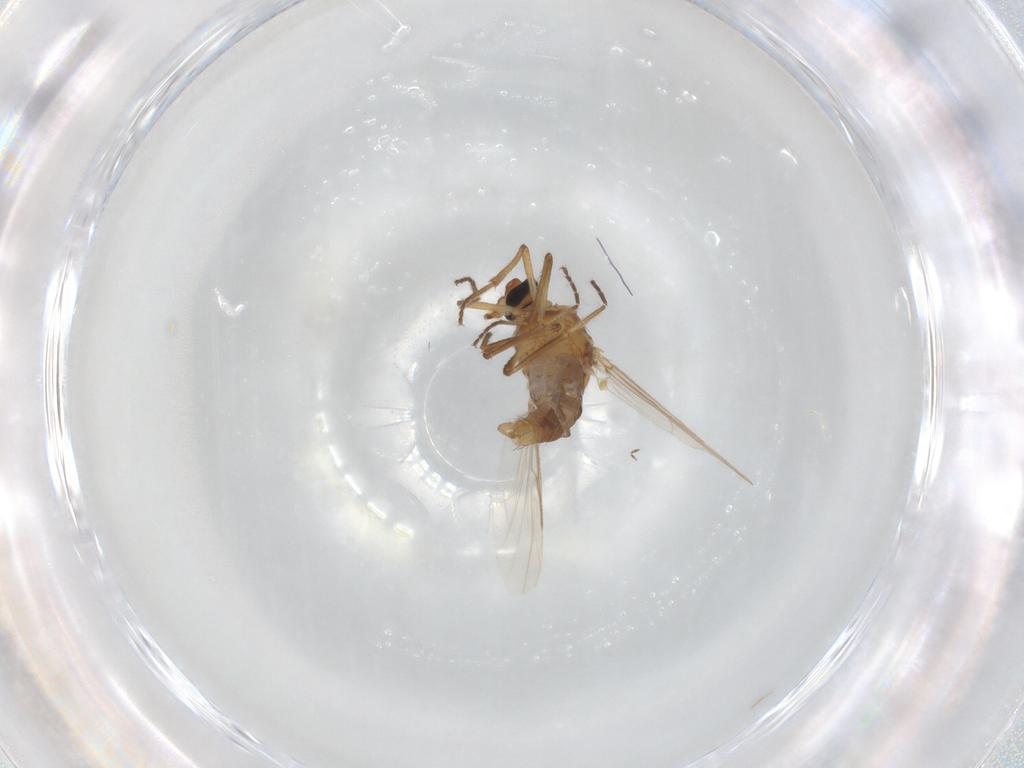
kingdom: Animalia
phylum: Arthropoda
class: Insecta
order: Diptera
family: Ceratopogonidae
